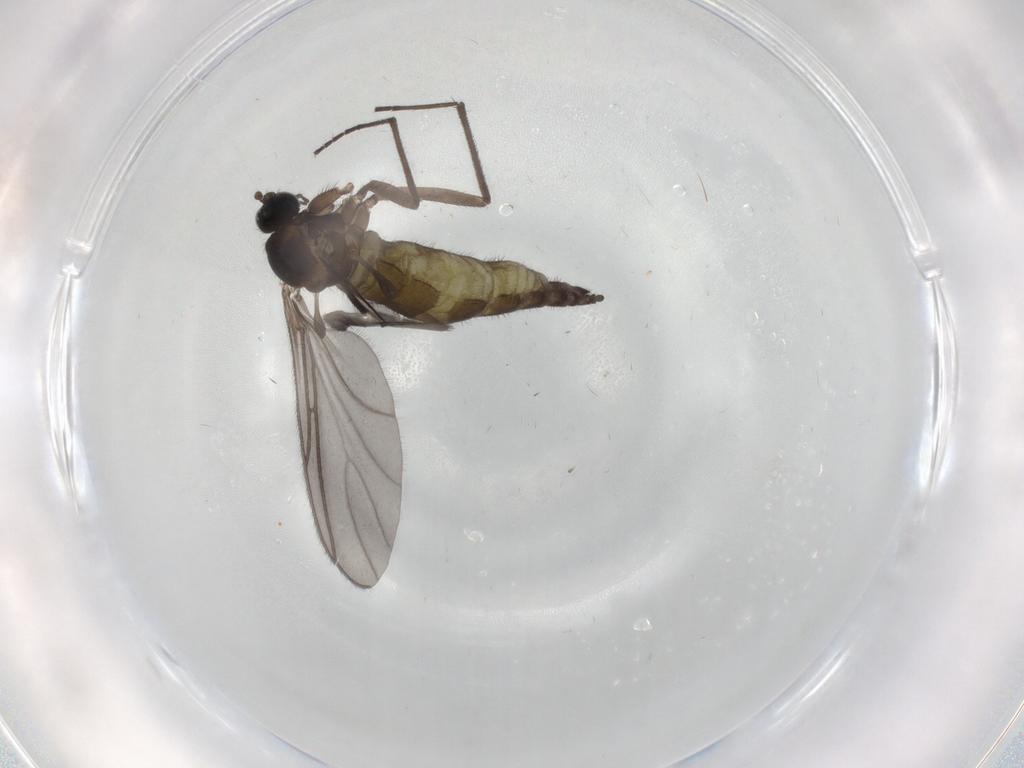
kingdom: Animalia
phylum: Arthropoda
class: Insecta
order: Diptera
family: Sciaridae
